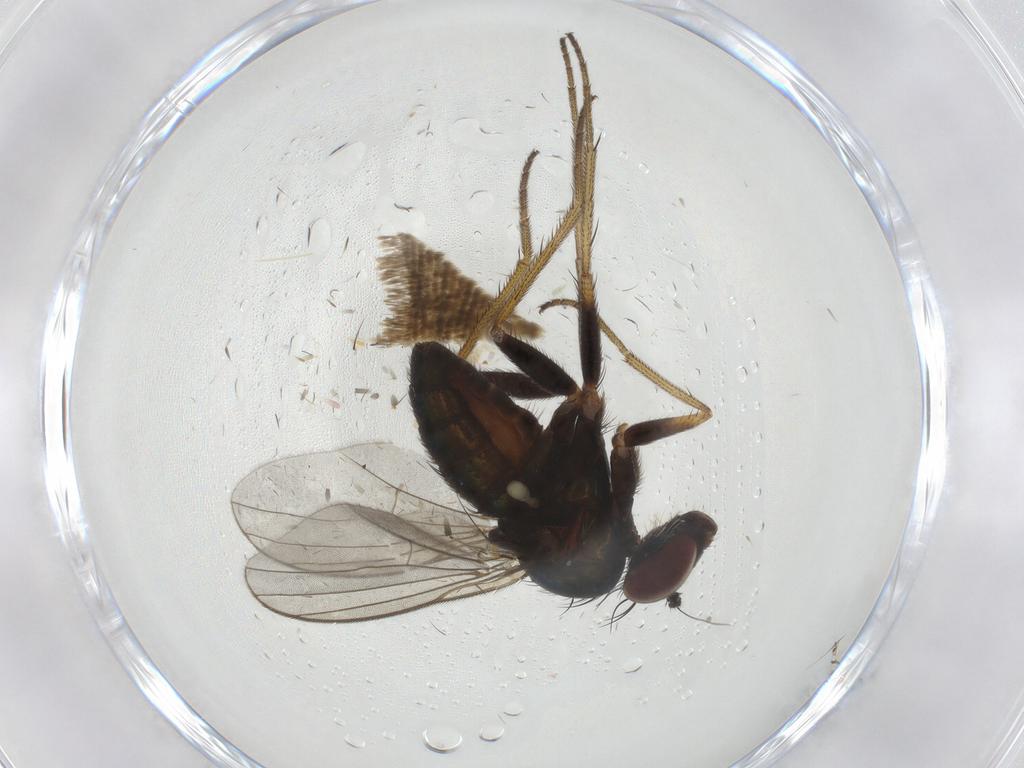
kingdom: Animalia
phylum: Arthropoda
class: Insecta
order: Diptera
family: Dolichopodidae
